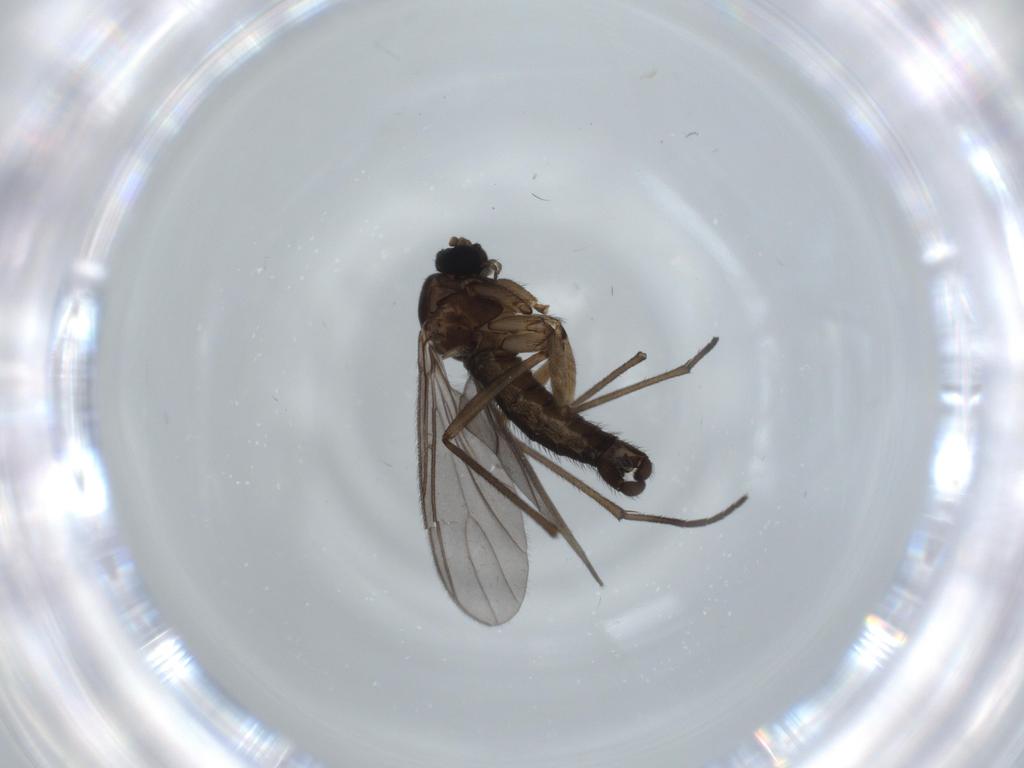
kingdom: Animalia
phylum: Arthropoda
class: Insecta
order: Diptera
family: Sciaridae
